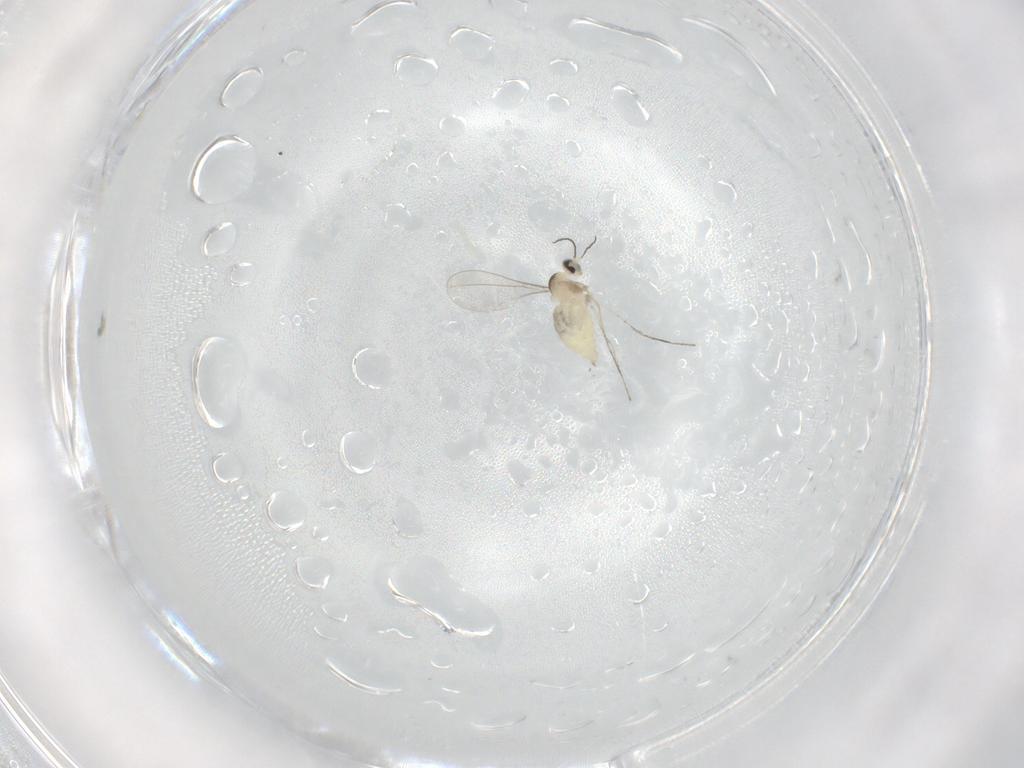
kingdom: Animalia
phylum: Arthropoda
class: Insecta
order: Diptera
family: Cecidomyiidae
